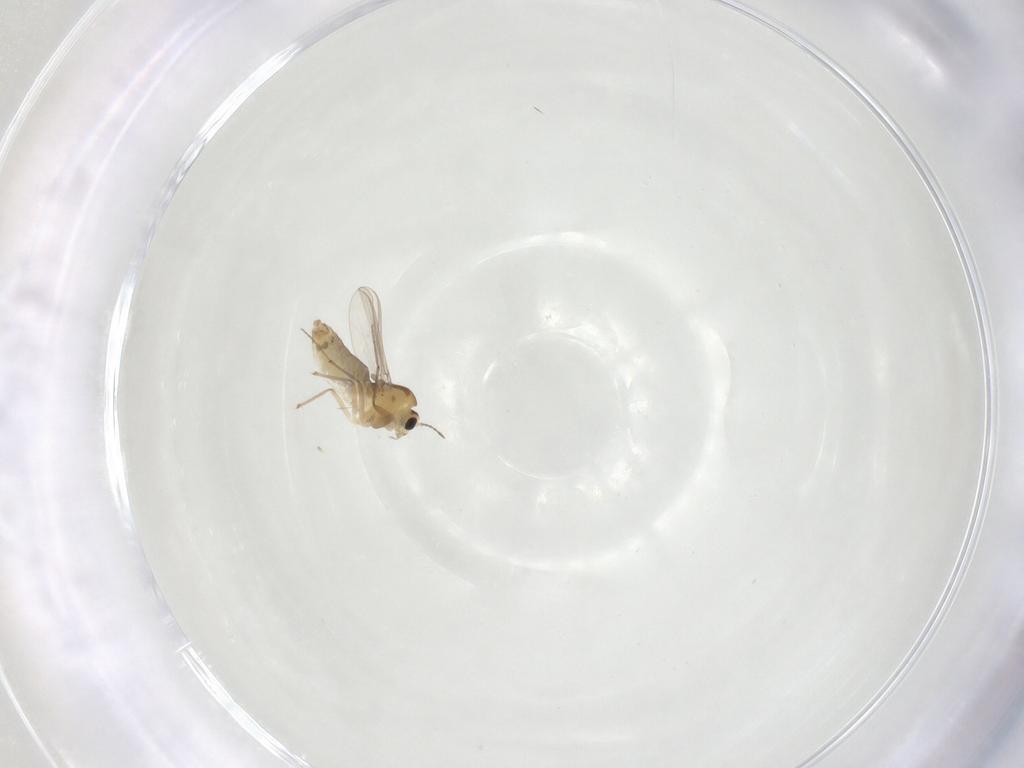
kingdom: Animalia
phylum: Arthropoda
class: Insecta
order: Diptera
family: Chironomidae
